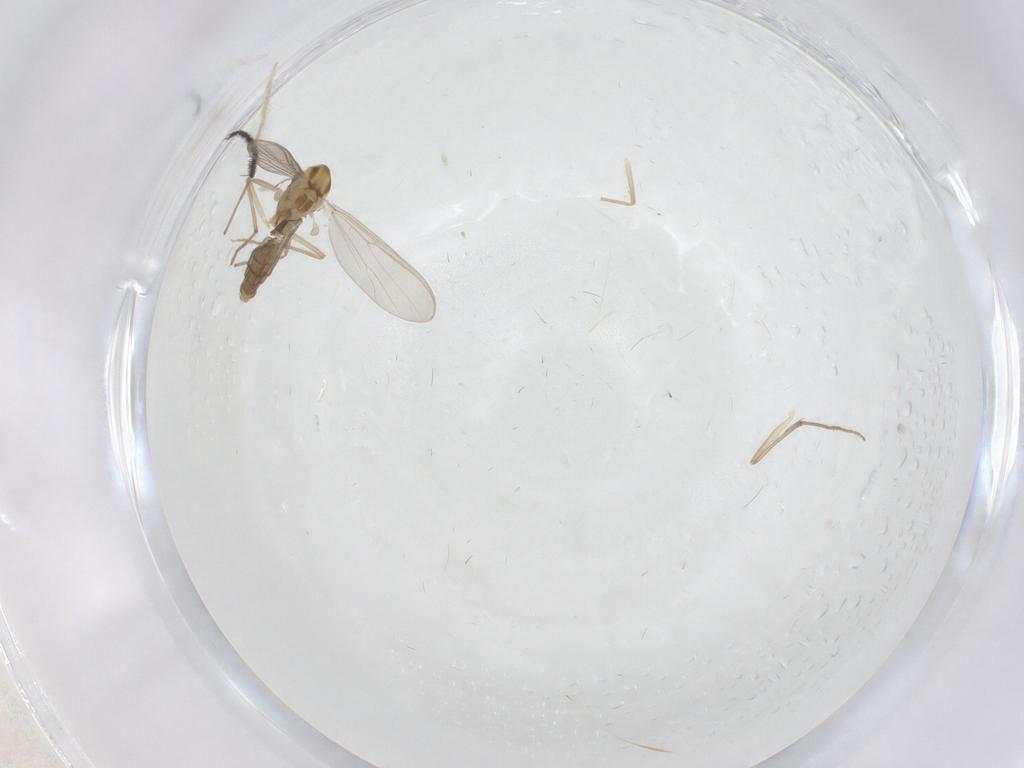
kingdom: Animalia
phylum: Arthropoda
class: Insecta
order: Diptera
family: Chironomidae
